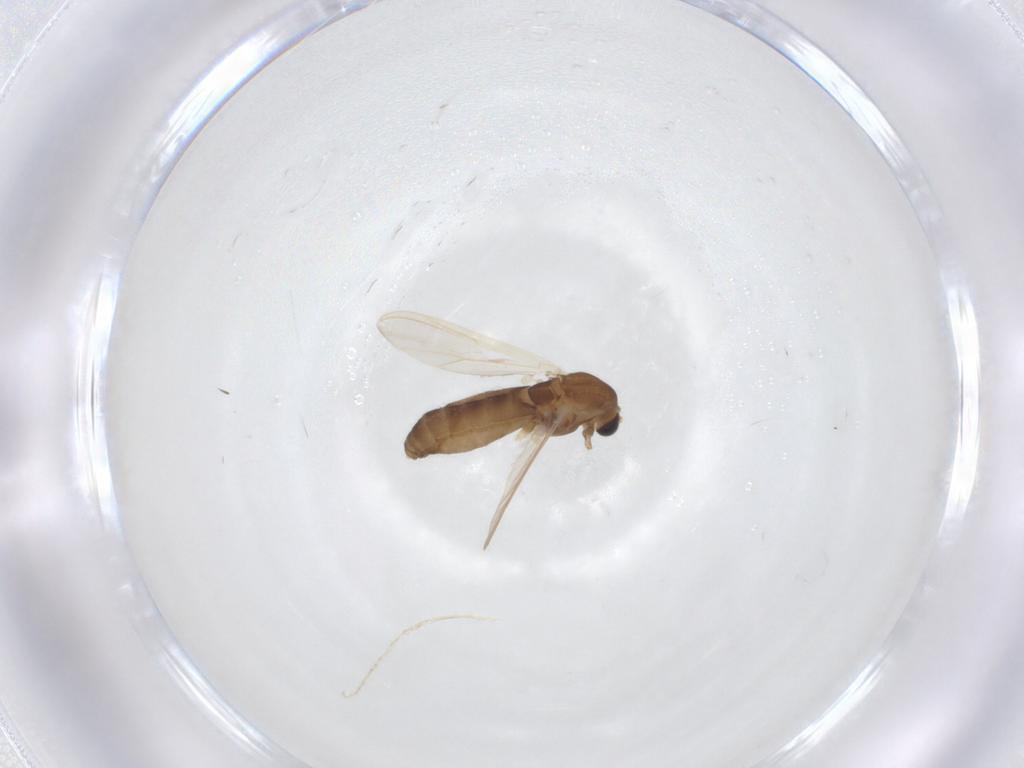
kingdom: Animalia
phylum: Arthropoda
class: Insecta
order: Diptera
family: Chironomidae
